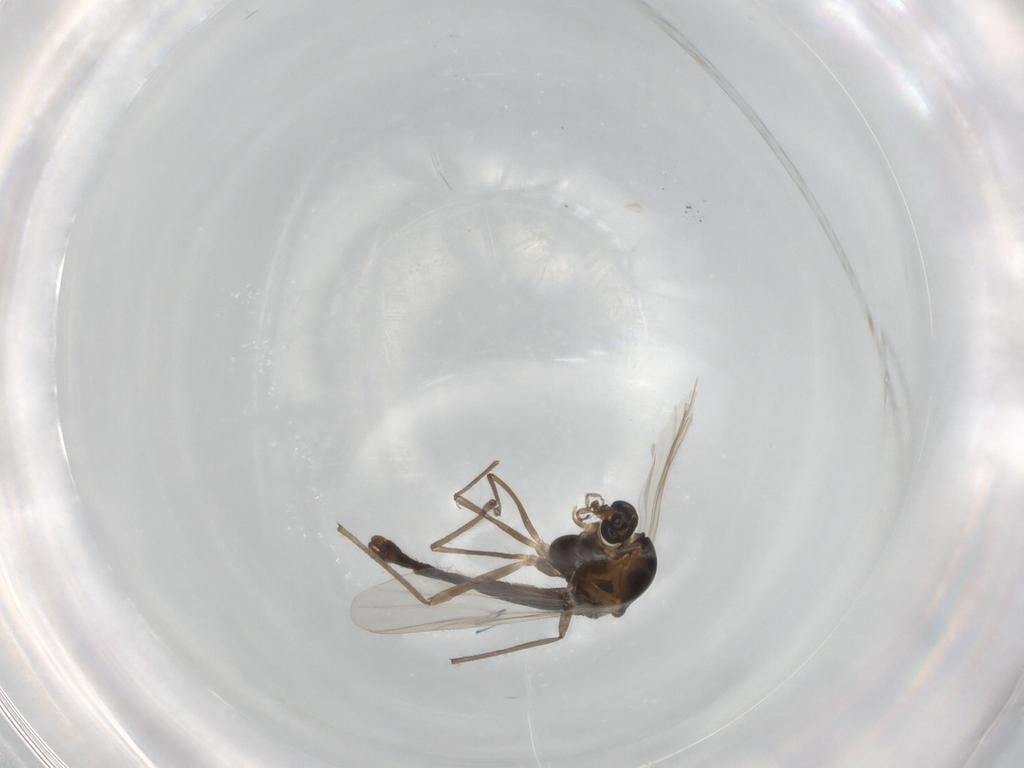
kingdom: Animalia
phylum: Arthropoda
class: Insecta
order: Diptera
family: Chironomidae
